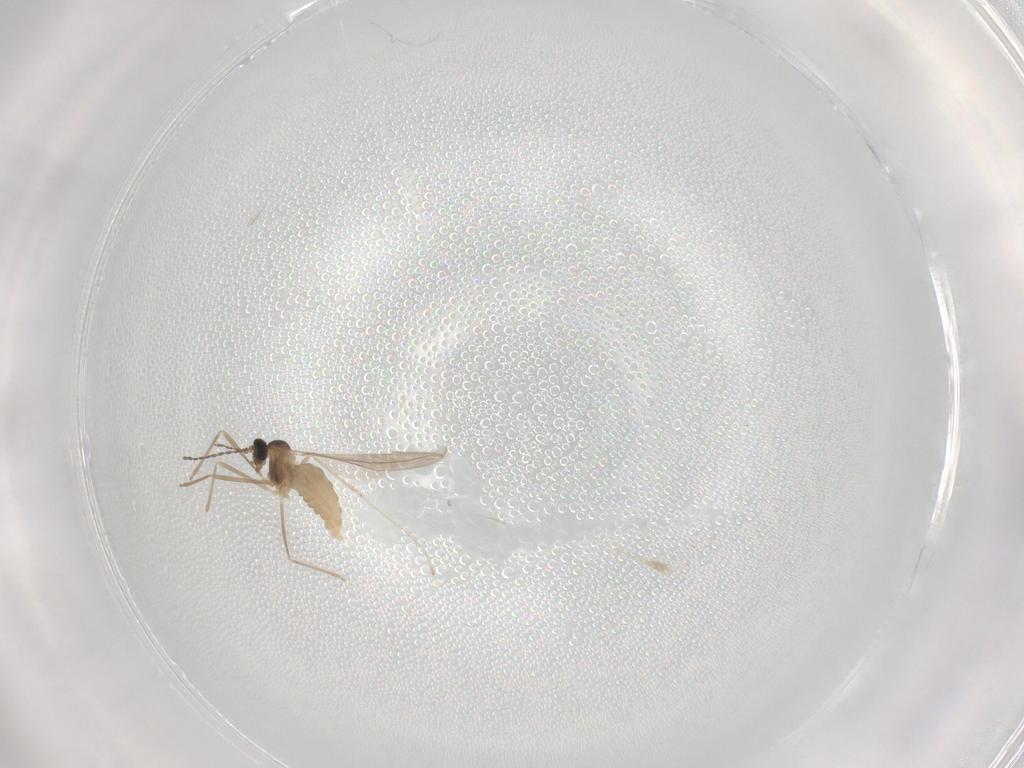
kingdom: Animalia
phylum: Arthropoda
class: Insecta
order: Diptera
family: Cecidomyiidae
